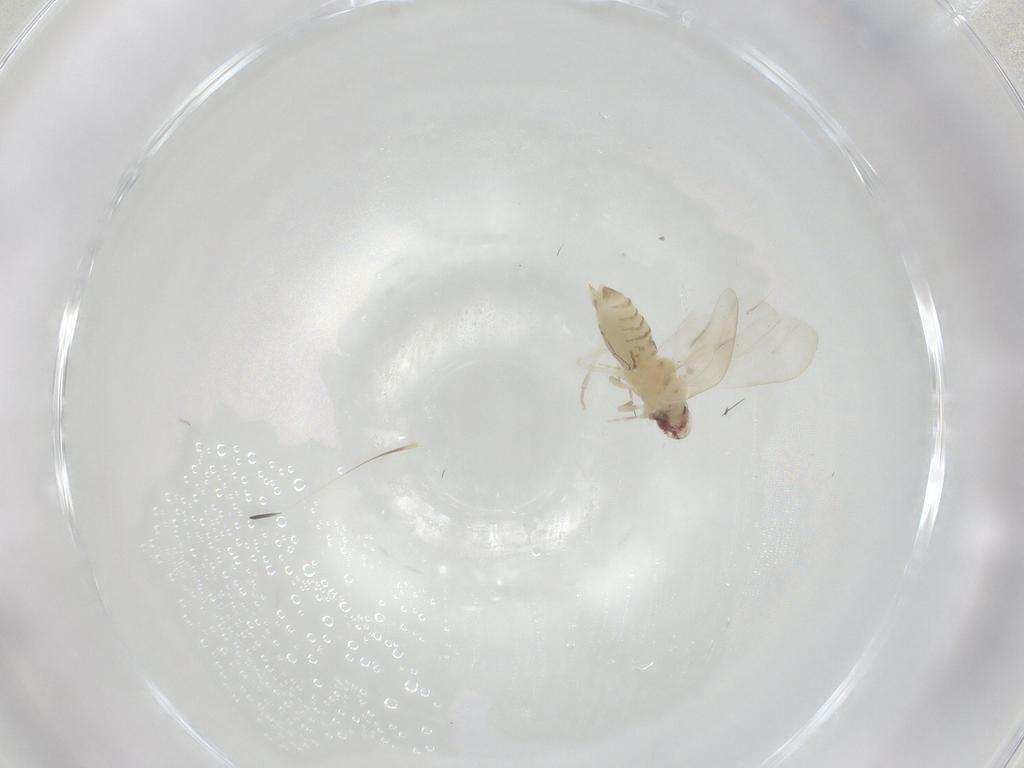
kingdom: Animalia
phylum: Arthropoda
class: Insecta
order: Hemiptera
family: Aleyrodidae
